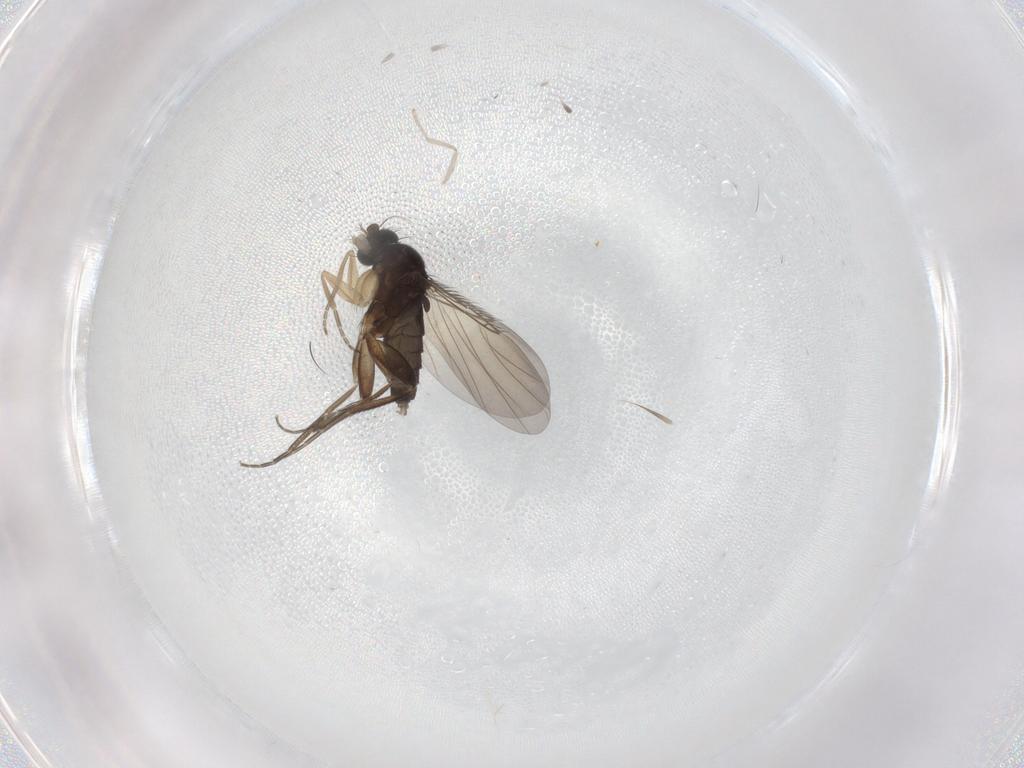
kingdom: Animalia
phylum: Arthropoda
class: Insecta
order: Diptera
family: Phoridae
